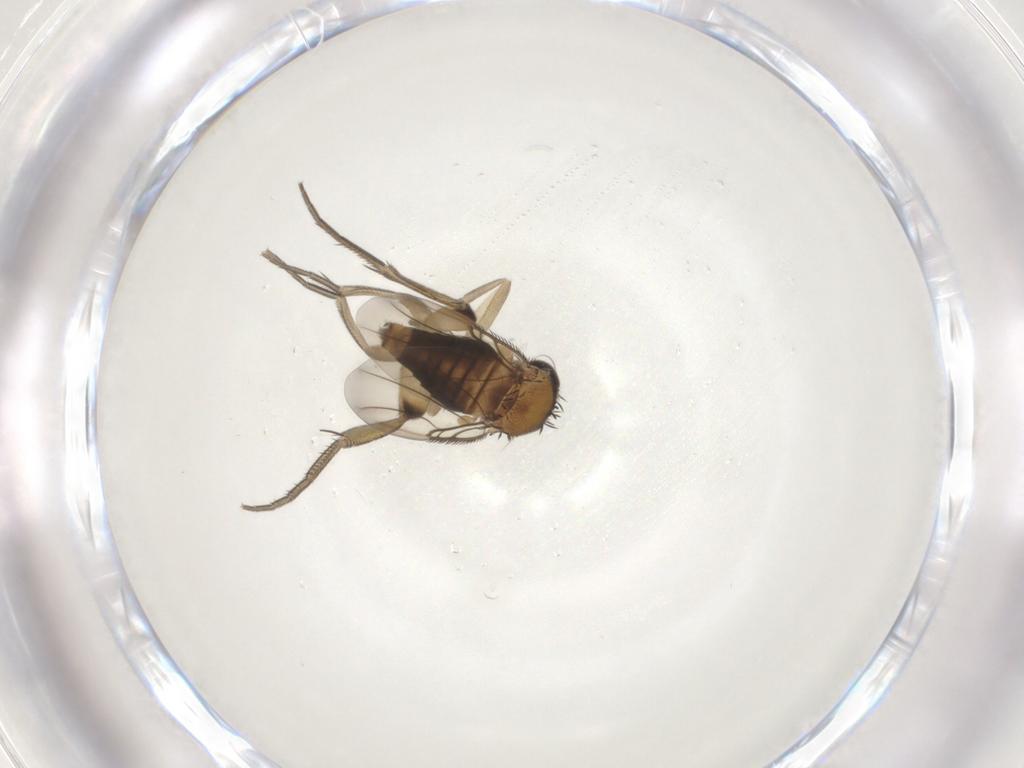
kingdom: Animalia
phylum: Arthropoda
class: Insecta
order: Diptera
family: Phoridae
